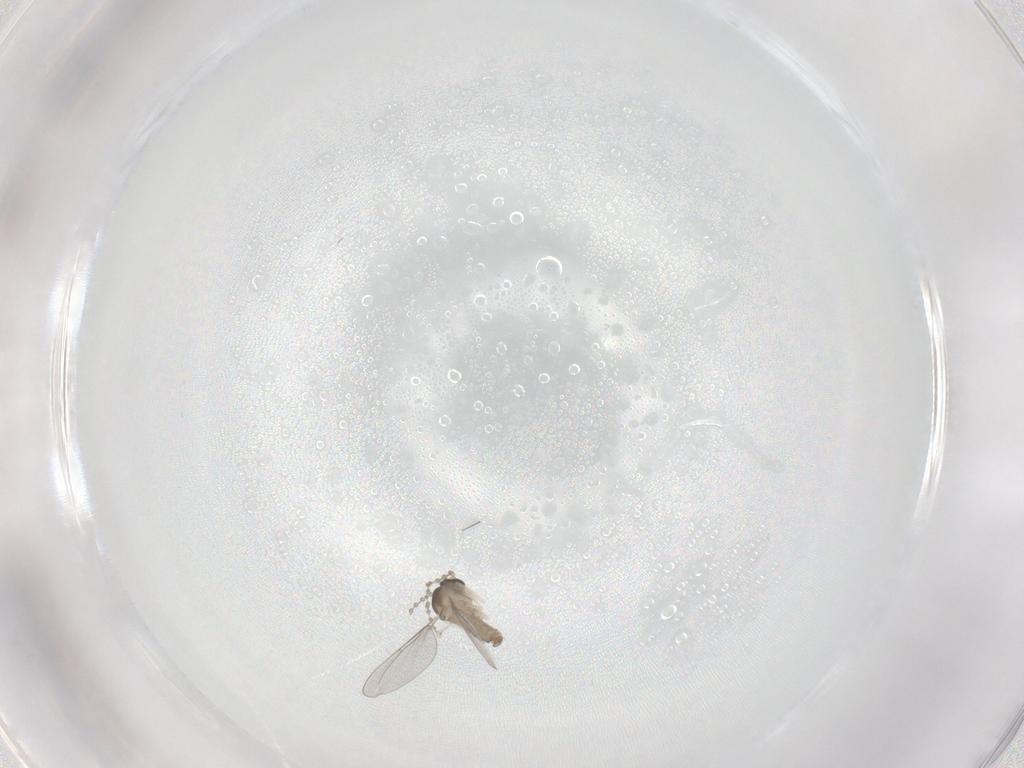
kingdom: Animalia
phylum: Arthropoda
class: Insecta
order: Diptera
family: Cecidomyiidae
